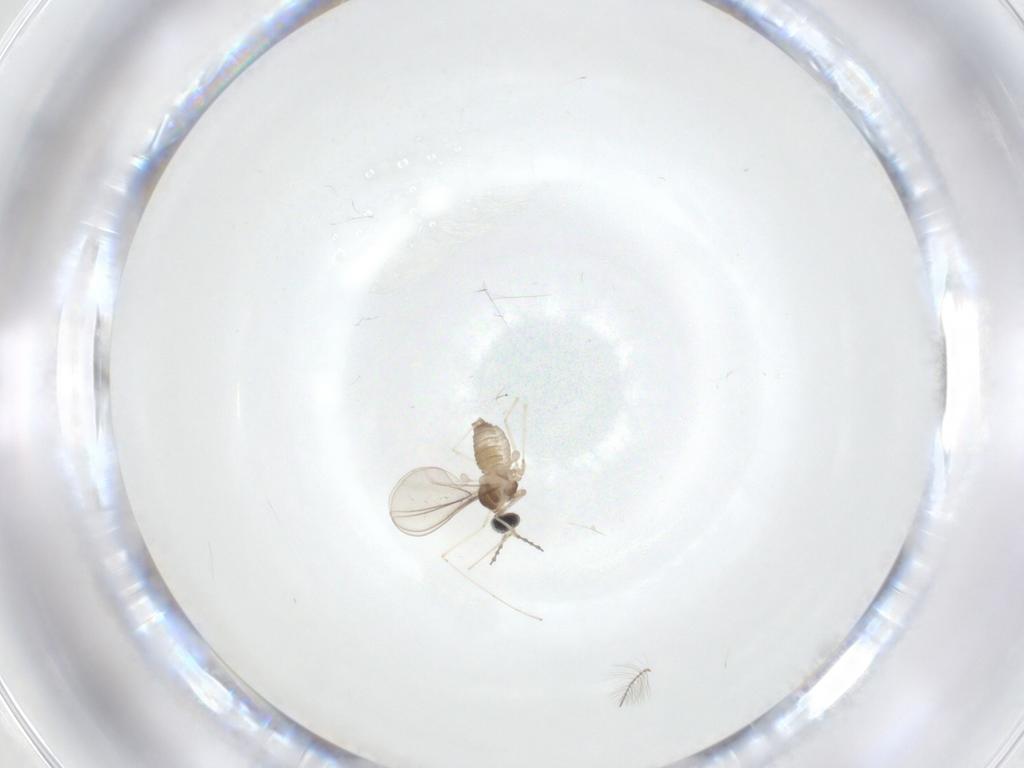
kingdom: Animalia
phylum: Arthropoda
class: Insecta
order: Diptera
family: Cecidomyiidae
